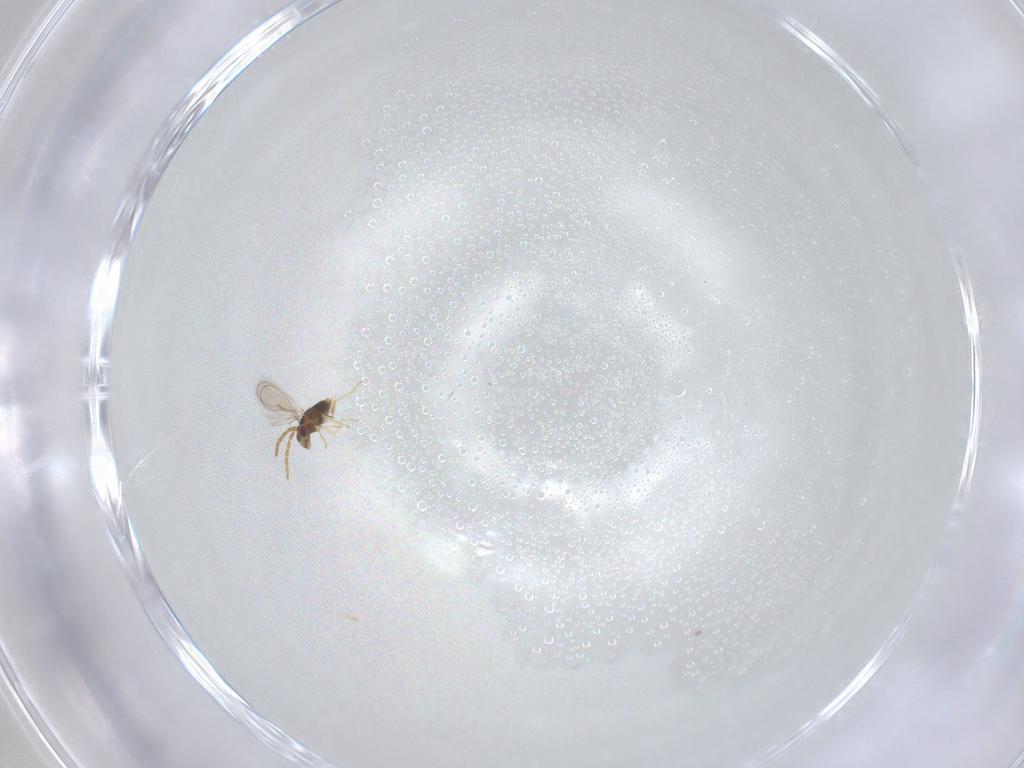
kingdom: Animalia
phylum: Arthropoda
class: Insecta
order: Hymenoptera
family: Aphelinidae
